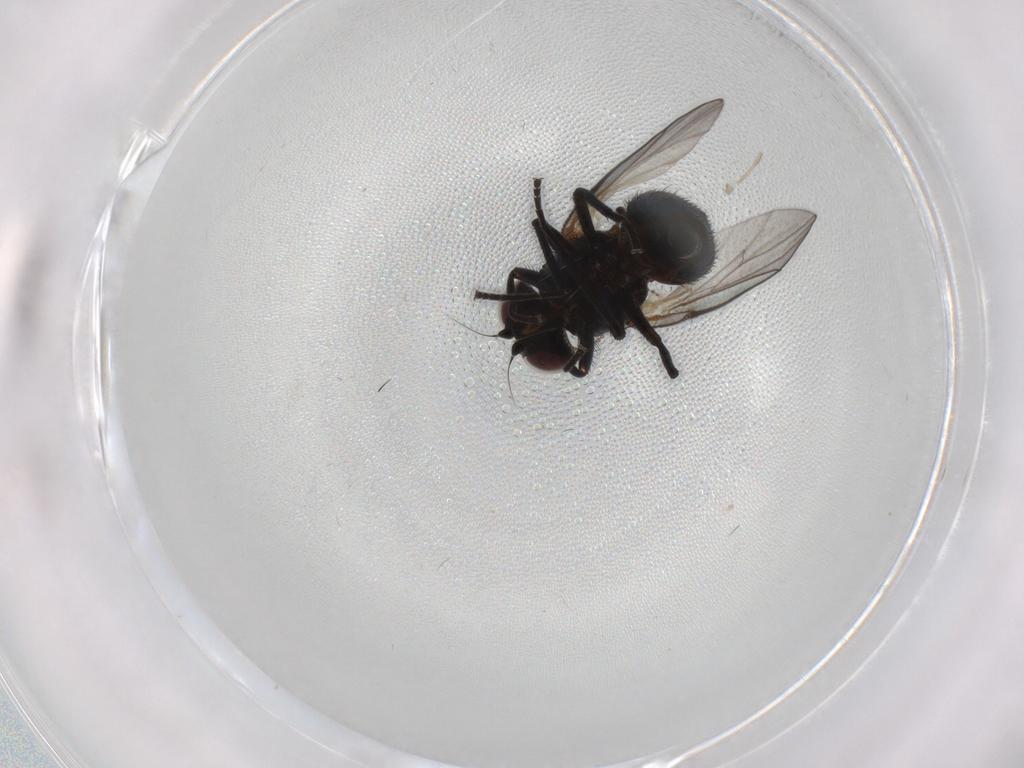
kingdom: Animalia
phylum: Arthropoda
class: Insecta
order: Diptera
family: Agromyzidae
